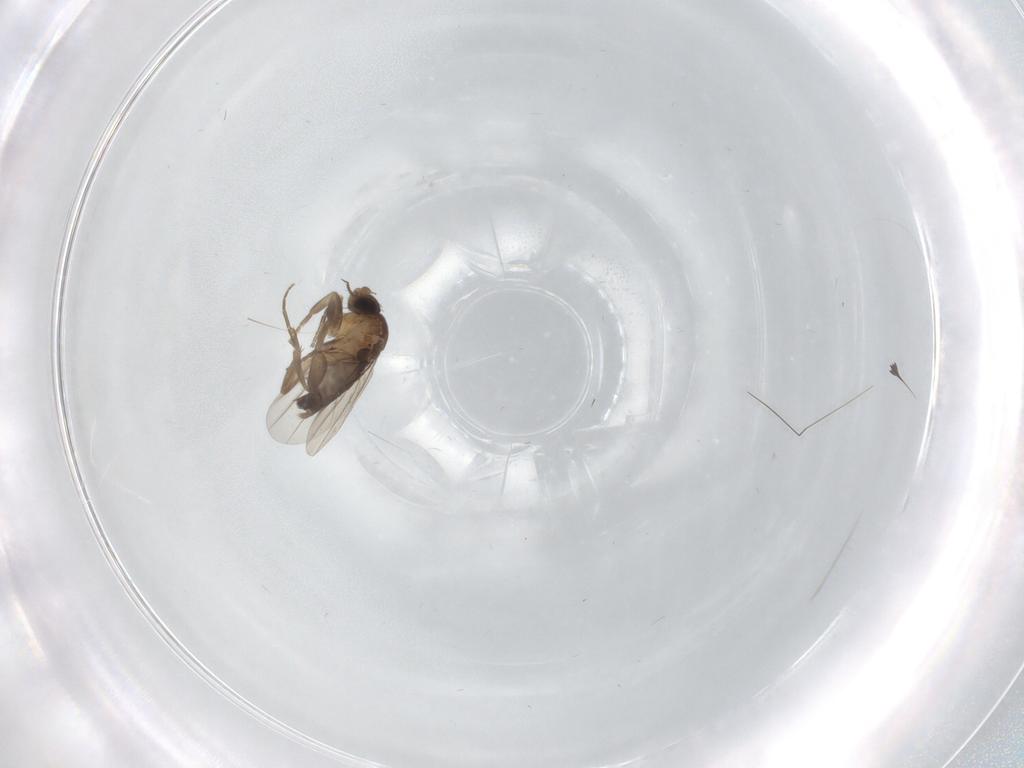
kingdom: Animalia
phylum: Arthropoda
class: Insecta
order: Diptera
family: Phoridae
